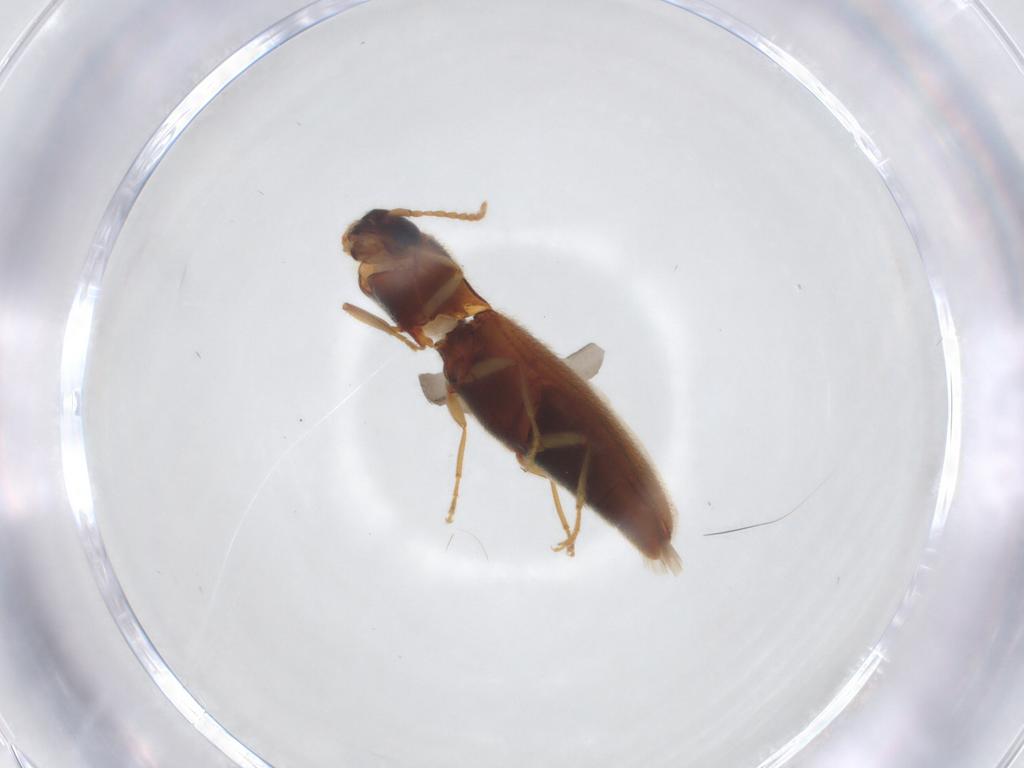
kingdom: Animalia
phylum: Arthropoda
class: Insecta
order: Coleoptera
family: Elateridae
